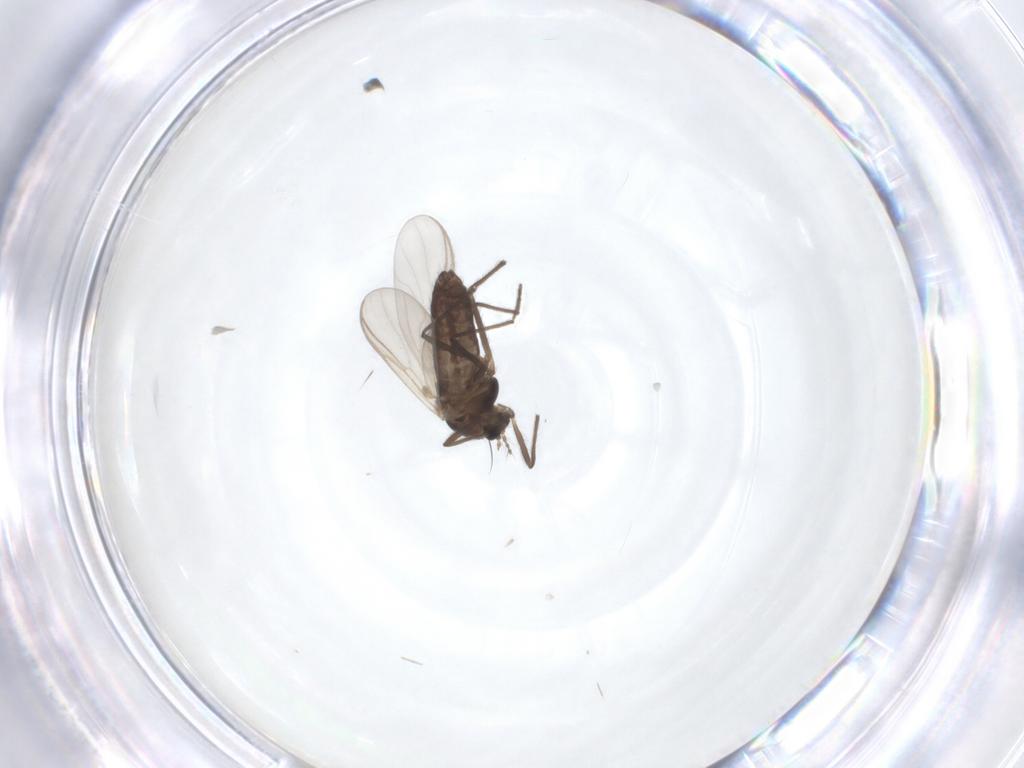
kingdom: Animalia
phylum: Arthropoda
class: Insecta
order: Diptera
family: Chironomidae
